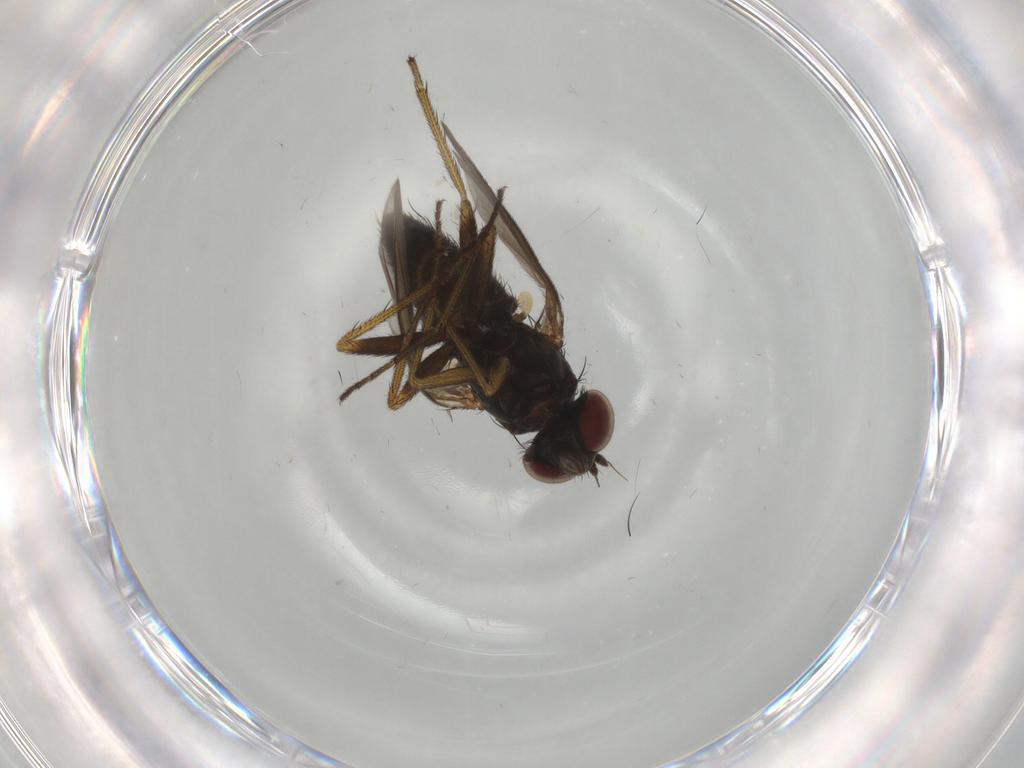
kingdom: Animalia
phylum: Arthropoda
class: Insecta
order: Diptera
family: Dolichopodidae
